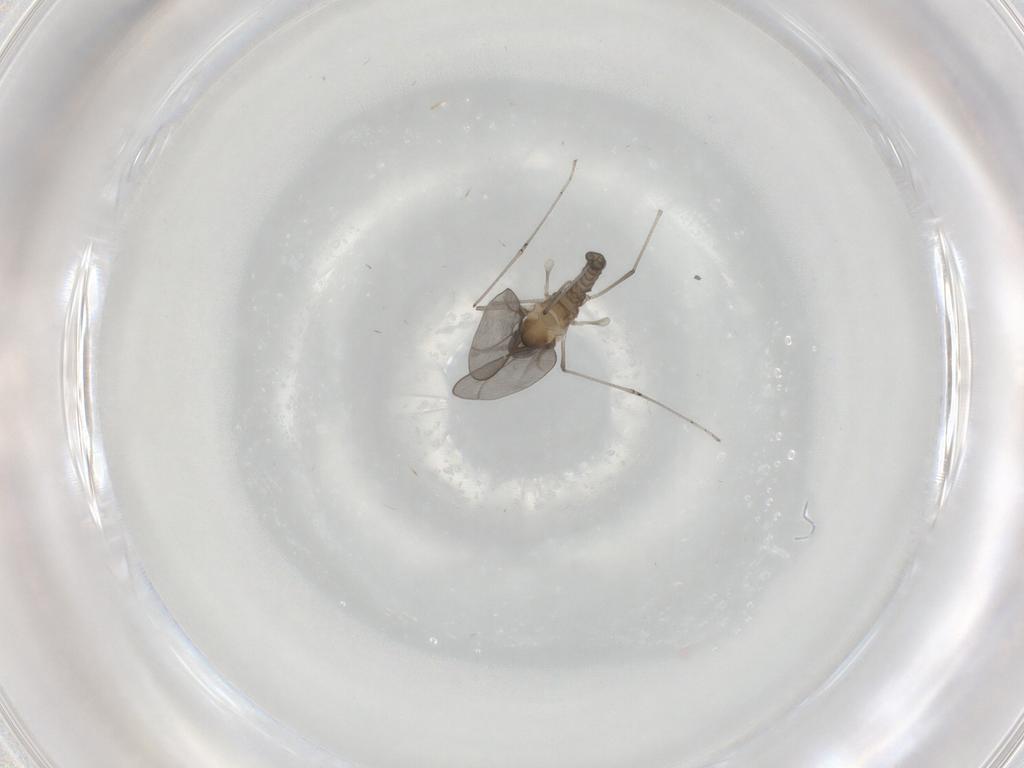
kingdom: Animalia
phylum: Arthropoda
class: Insecta
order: Diptera
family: Cecidomyiidae
